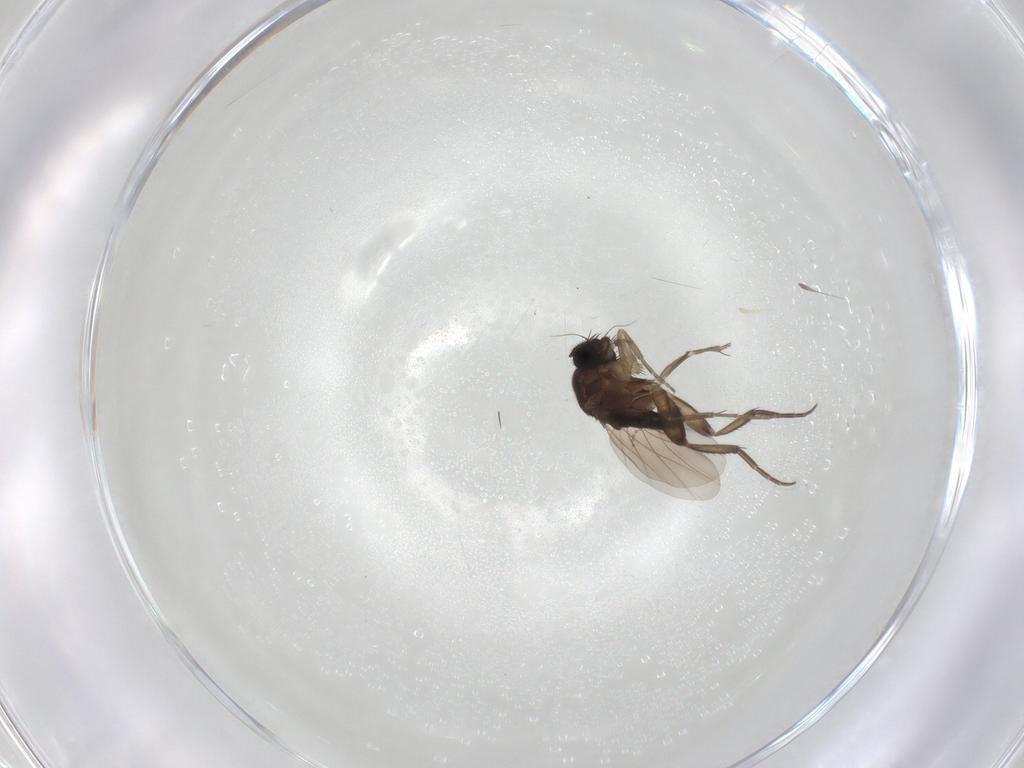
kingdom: Animalia
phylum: Arthropoda
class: Insecta
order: Diptera
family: Phoridae
